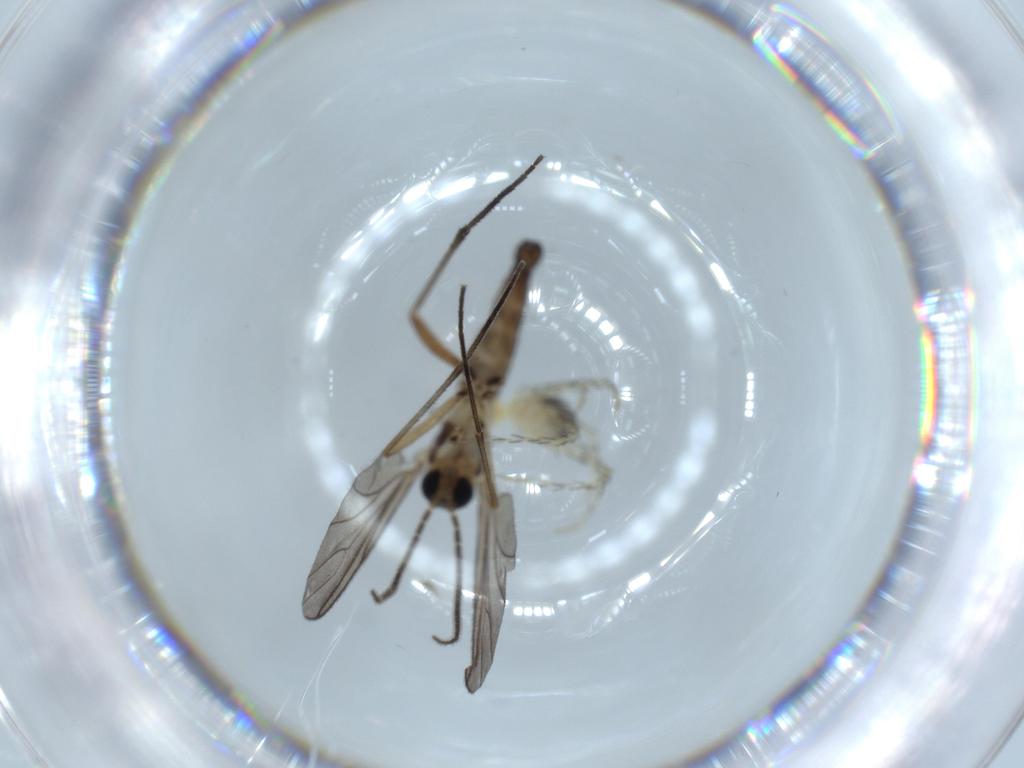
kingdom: Animalia
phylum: Arthropoda
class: Arachnida
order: Trombidiformes
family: Erythraeidae
